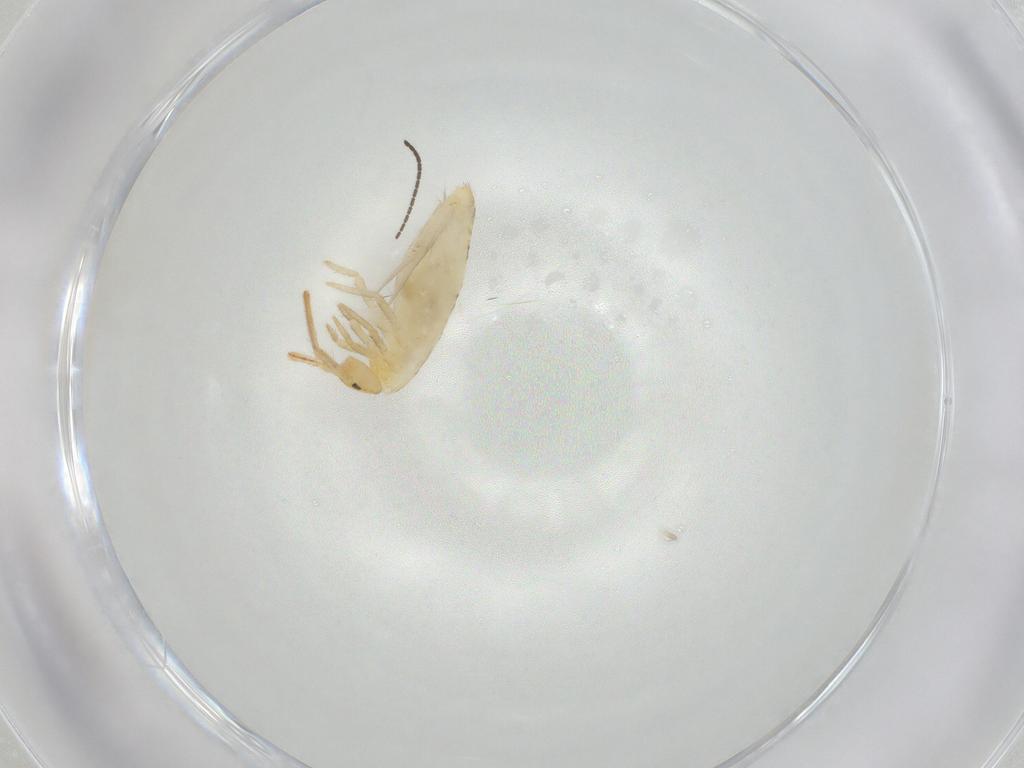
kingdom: Animalia
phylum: Arthropoda
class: Collembola
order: Entomobryomorpha
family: Entomobryidae
